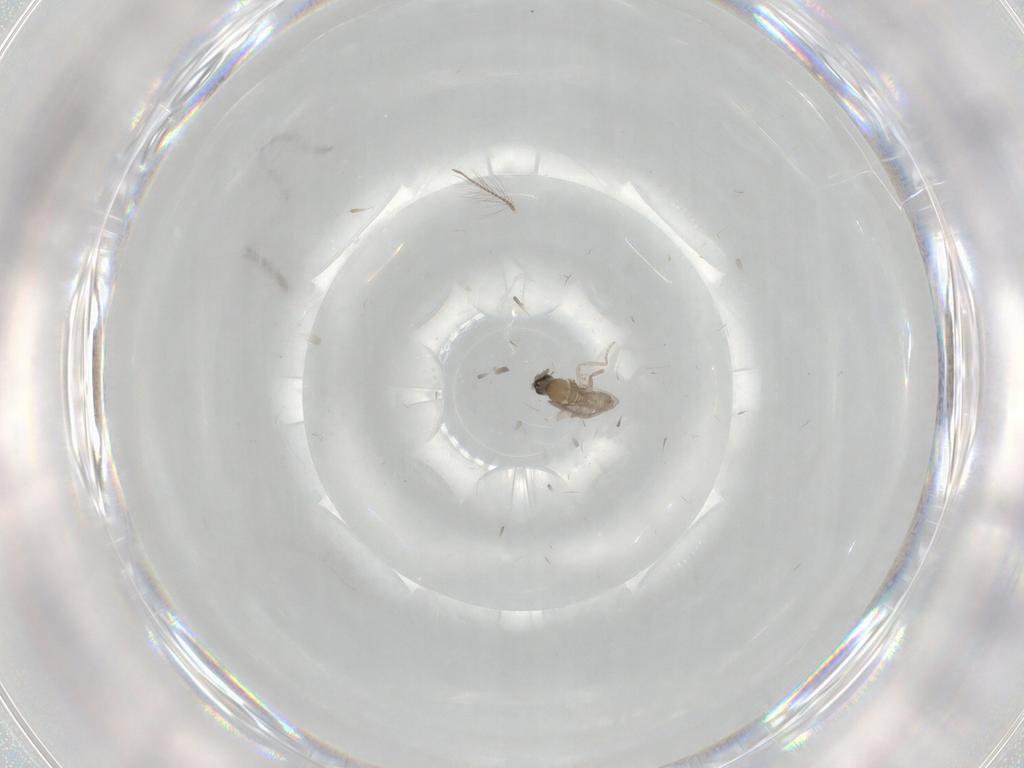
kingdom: Animalia
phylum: Arthropoda
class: Insecta
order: Diptera
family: Cecidomyiidae
